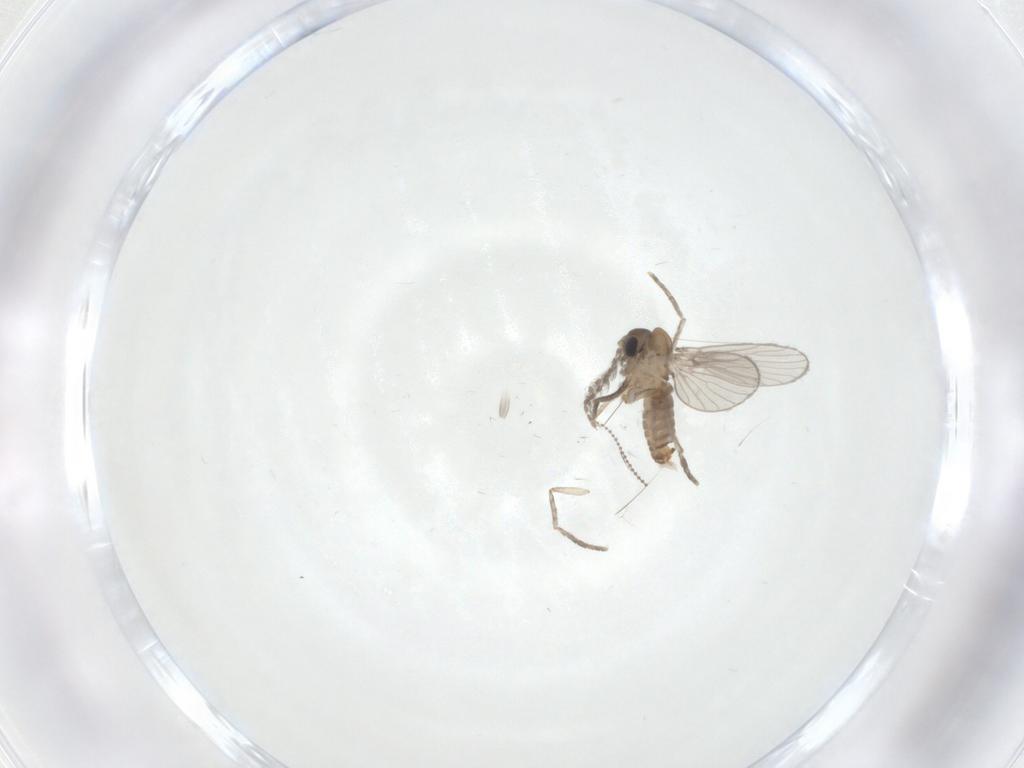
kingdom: Animalia
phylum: Arthropoda
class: Insecta
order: Diptera
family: Cecidomyiidae
